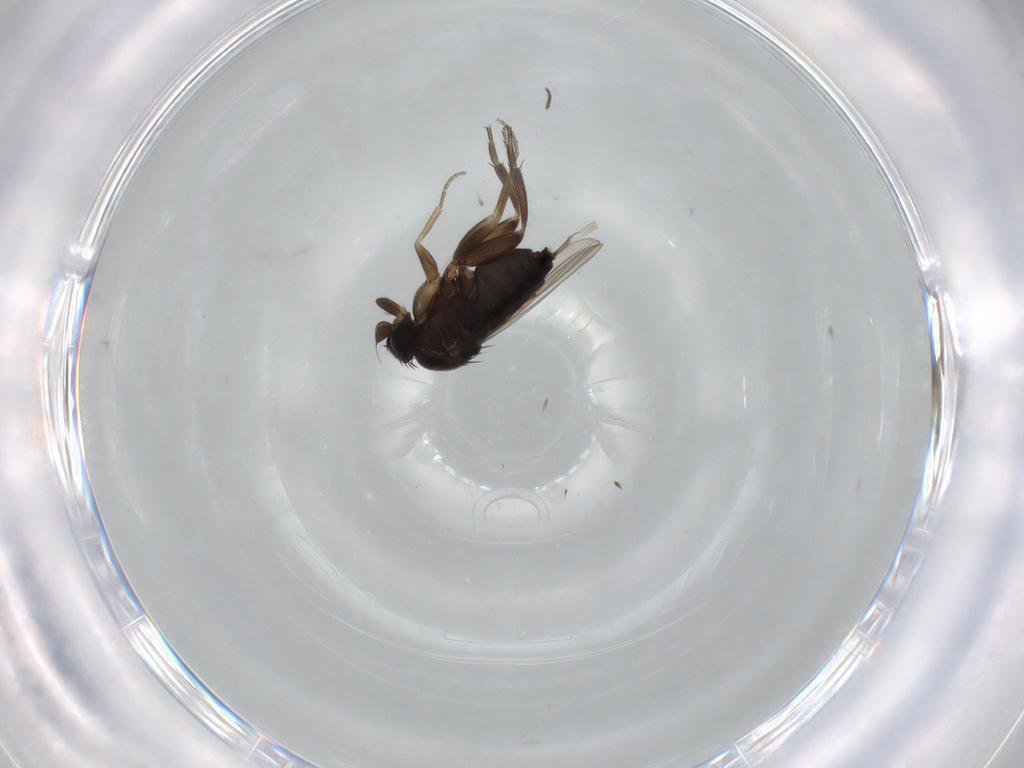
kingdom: Animalia
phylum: Arthropoda
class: Insecta
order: Diptera
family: Phoridae
